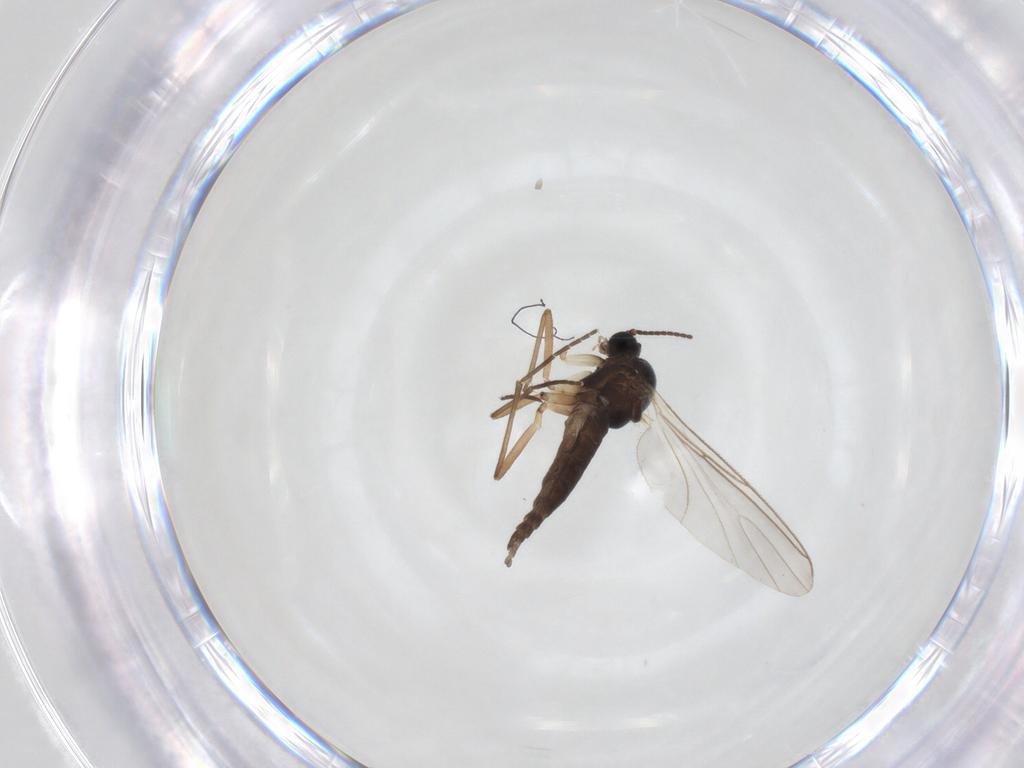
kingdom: Animalia
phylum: Arthropoda
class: Insecta
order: Diptera
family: Sciaridae
